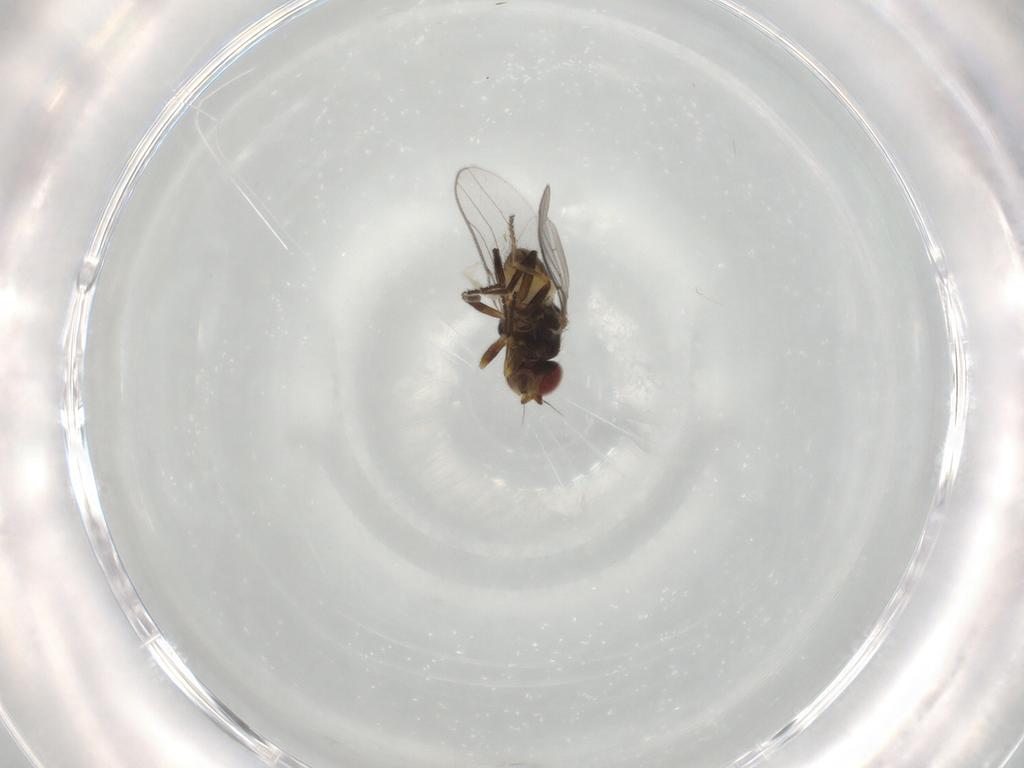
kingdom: Animalia
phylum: Arthropoda
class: Insecta
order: Diptera
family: Chloropidae
